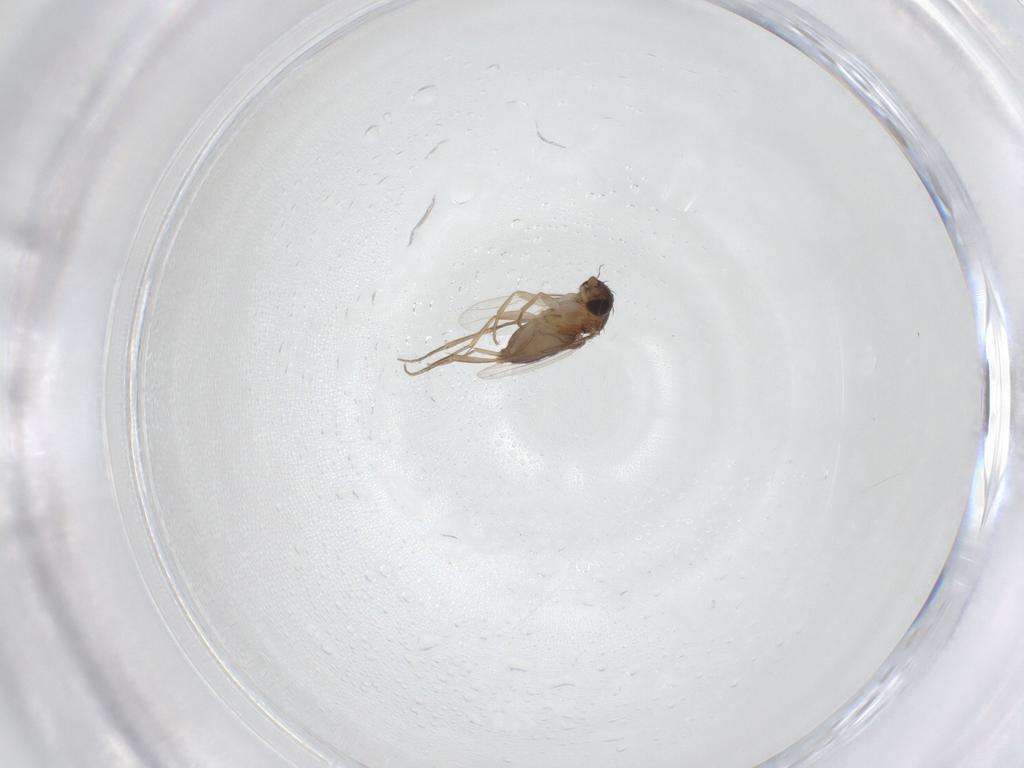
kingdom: Animalia
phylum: Arthropoda
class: Insecta
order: Diptera
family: Phoridae
